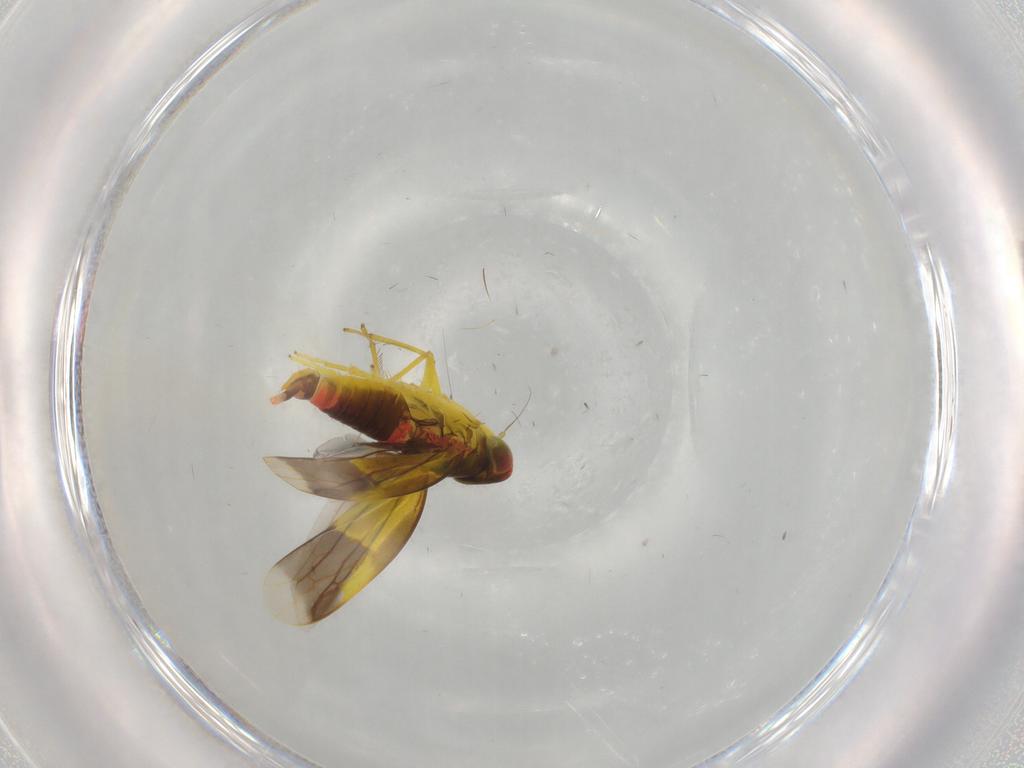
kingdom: Animalia
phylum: Arthropoda
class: Insecta
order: Hemiptera
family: Cicadellidae
